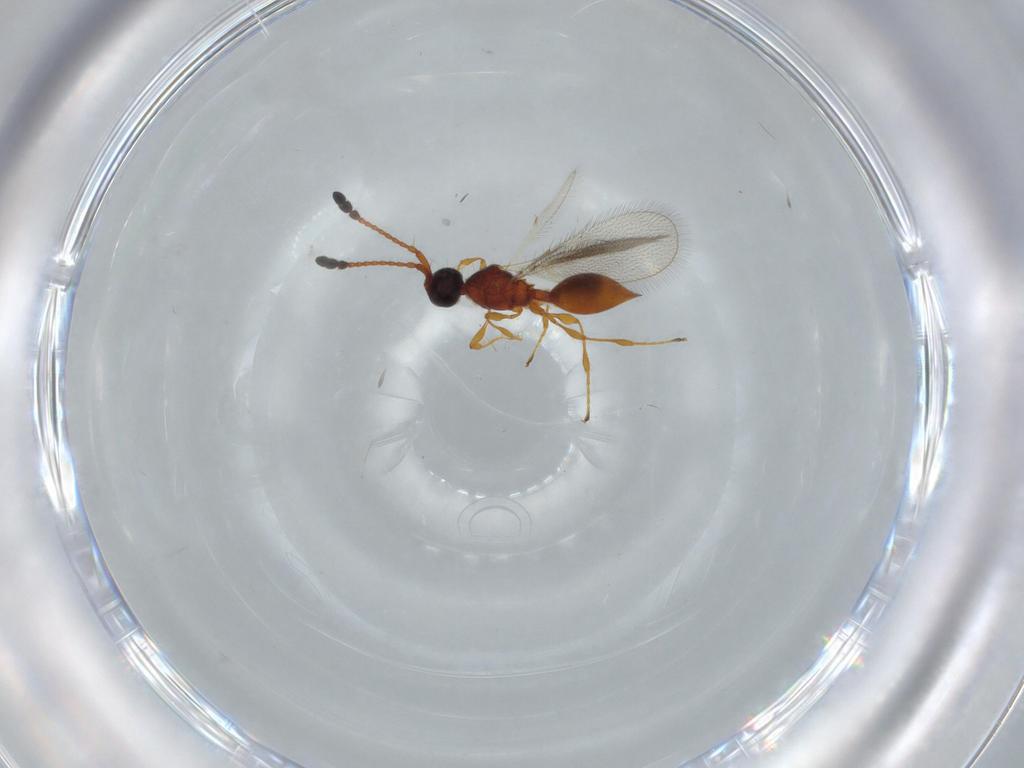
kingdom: Animalia
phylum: Arthropoda
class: Insecta
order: Hymenoptera
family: Diapriidae
